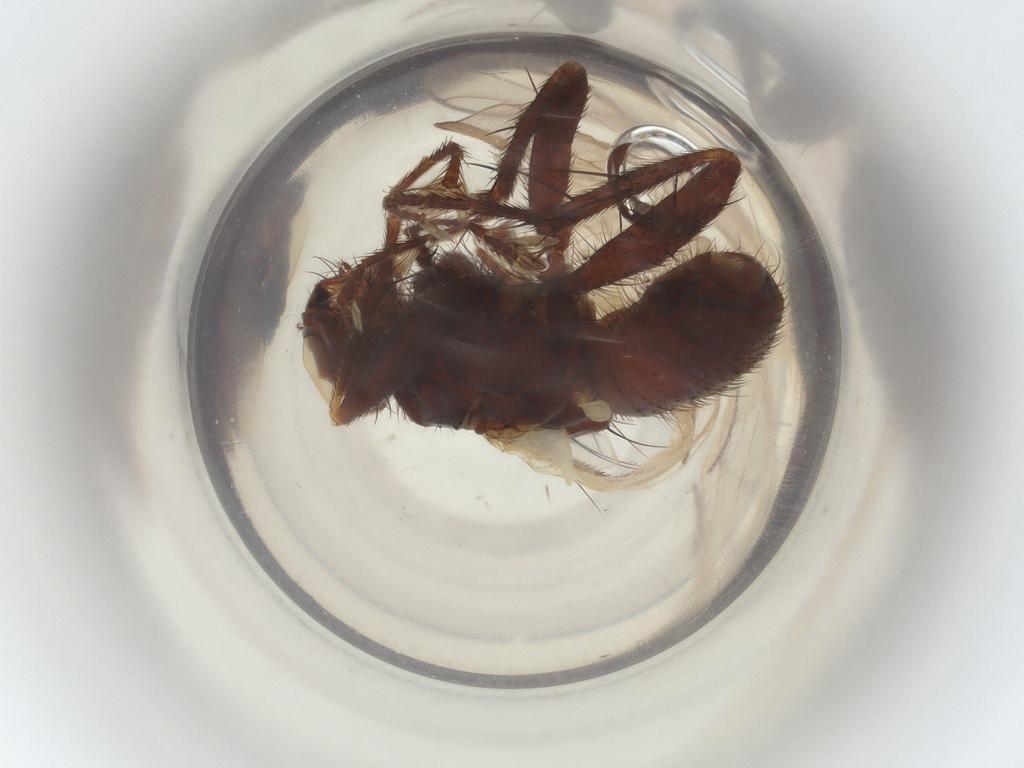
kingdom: Animalia
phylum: Arthropoda
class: Insecta
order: Diptera
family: Muscidae
